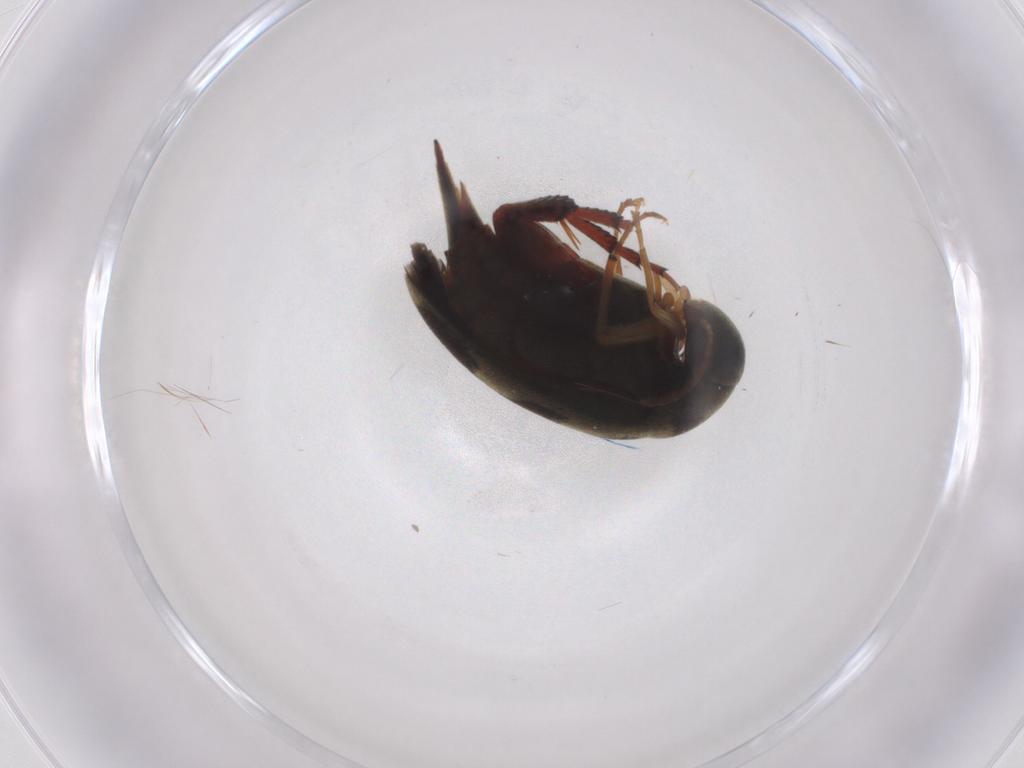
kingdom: Animalia
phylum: Arthropoda
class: Insecta
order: Coleoptera
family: Mordellidae
